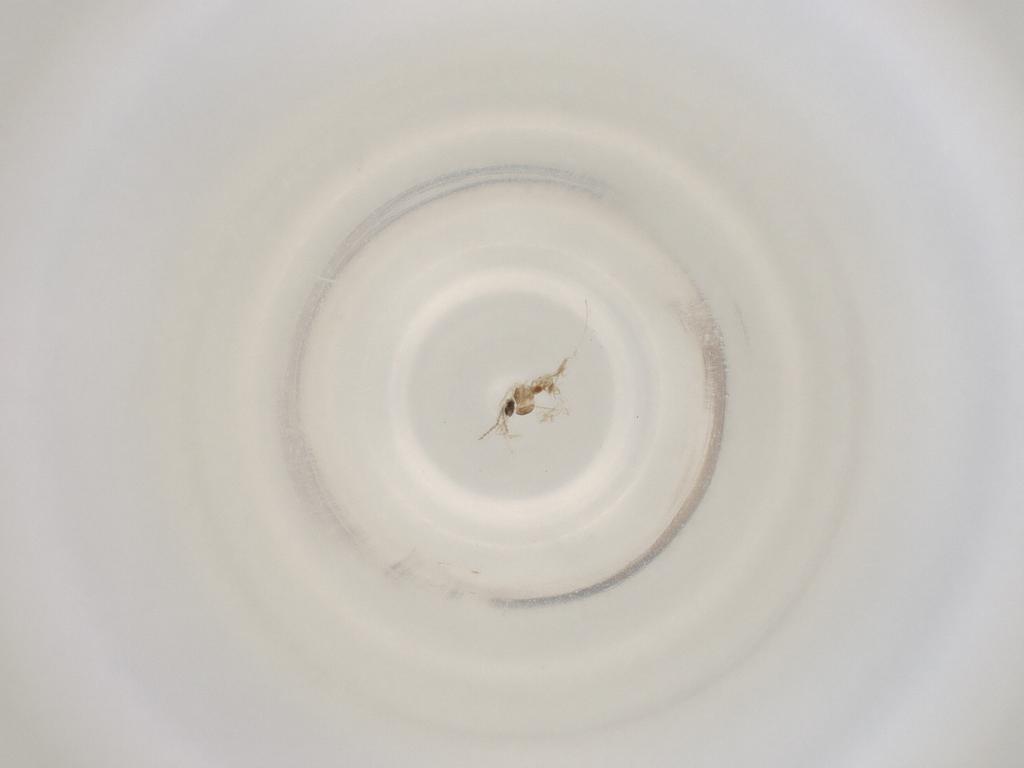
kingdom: Animalia
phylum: Arthropoda
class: Insecta
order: Diptera
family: Cecidomyiidae
